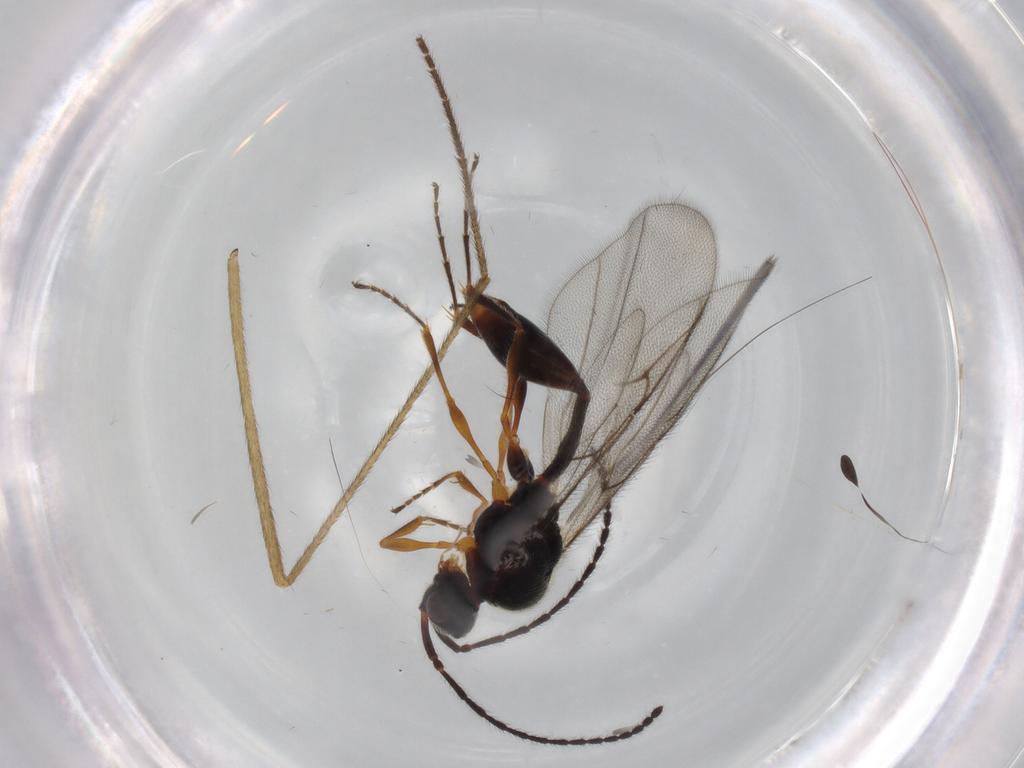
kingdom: Animalia
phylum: Arthropoda
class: Insecta
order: Hymenoptera
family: Diapriidae
